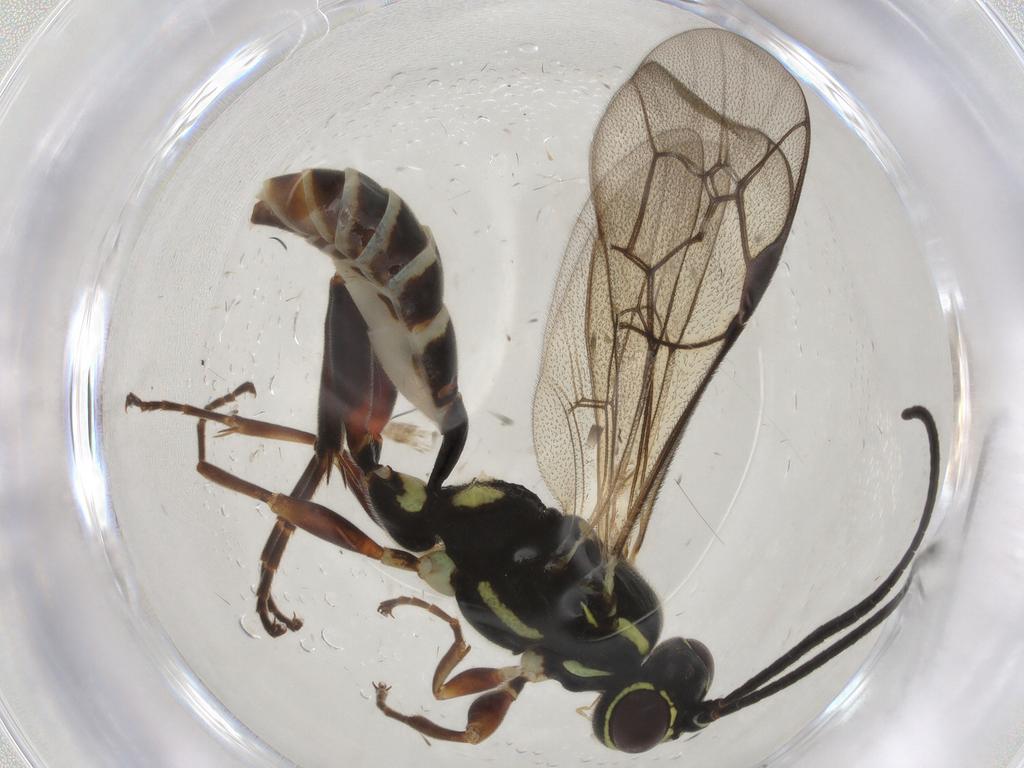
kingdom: Animalia
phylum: Arthropoda
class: Insecta
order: Hymenoptera
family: Ichneumonidae
